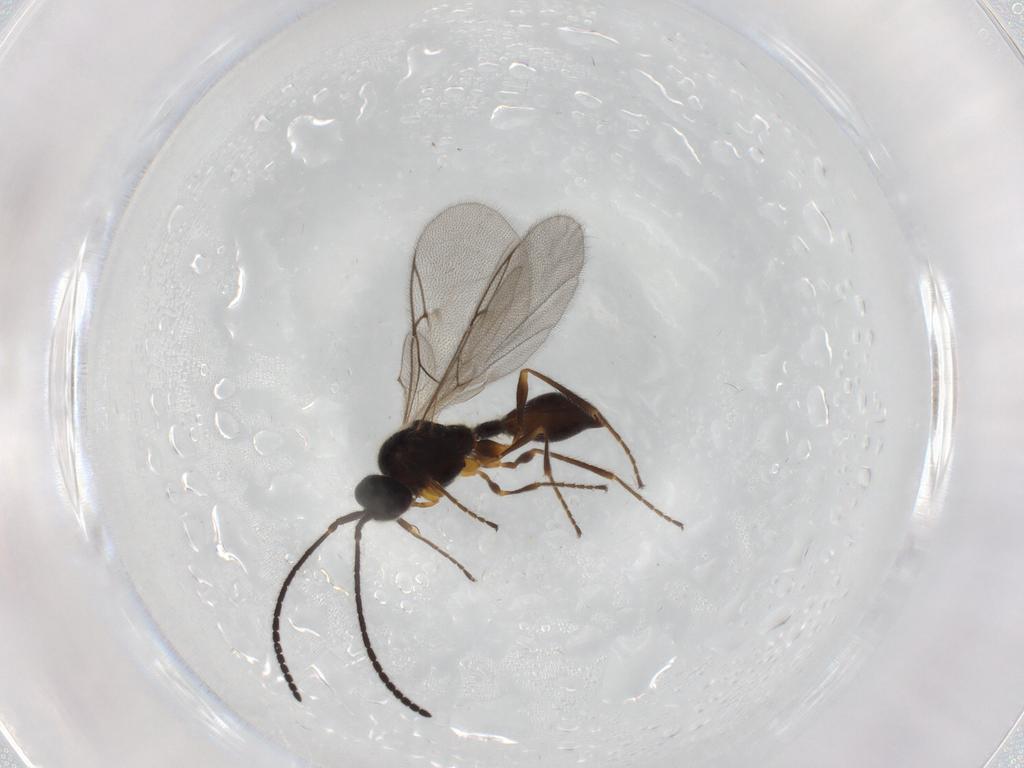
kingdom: Animalia
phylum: Arthropoda
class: Insecta
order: Hymenoptera
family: Diapriidae
